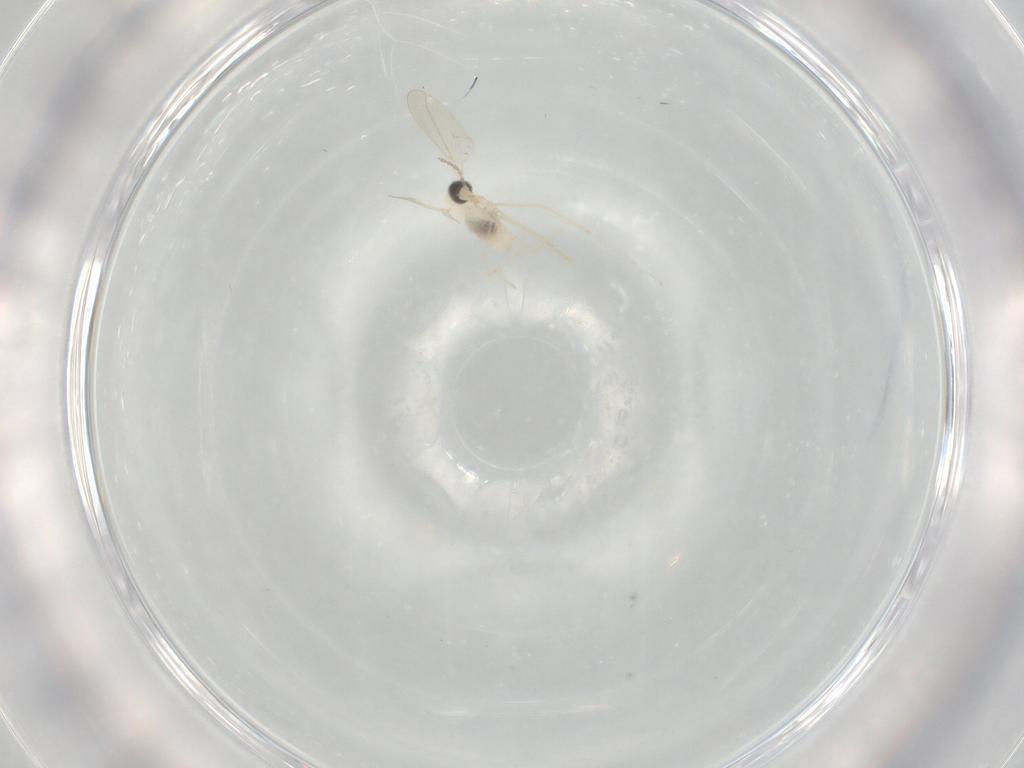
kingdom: Animalia
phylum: Arthropoda
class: Insecta
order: Diptera
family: Cecidomyiidae
